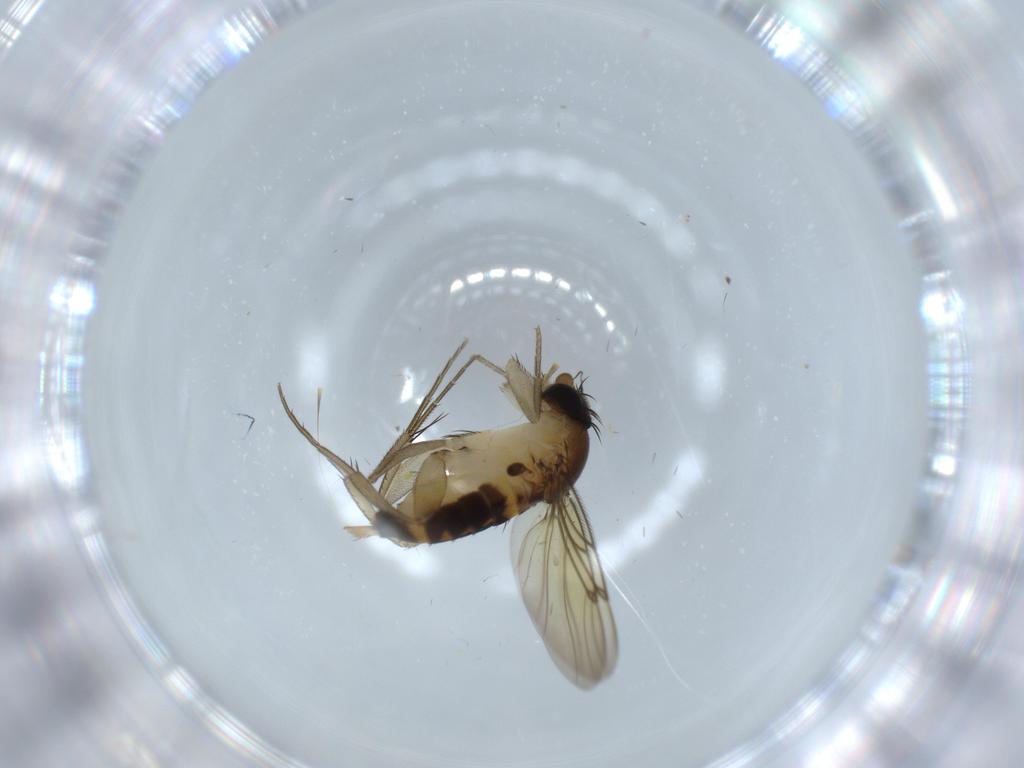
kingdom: Animalia
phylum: Arthropoda
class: Insecta
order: Diptera
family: Phoridae
